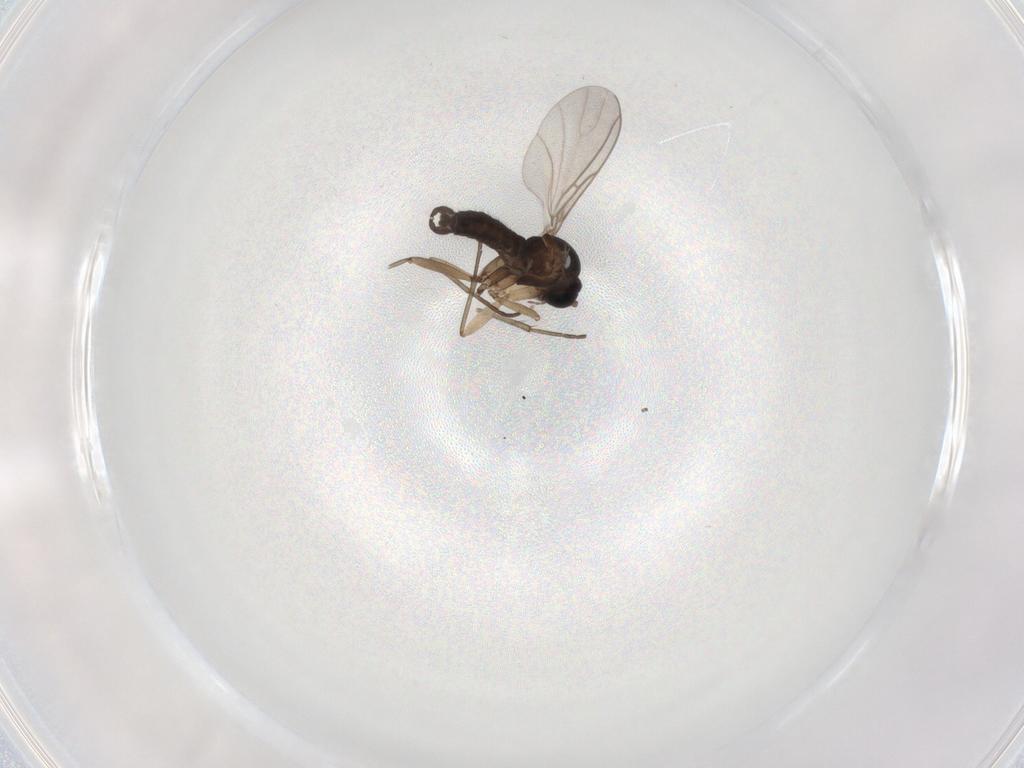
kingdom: Animalia
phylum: Arthropoda
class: Insecta
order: Diptera
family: Sciaridae
